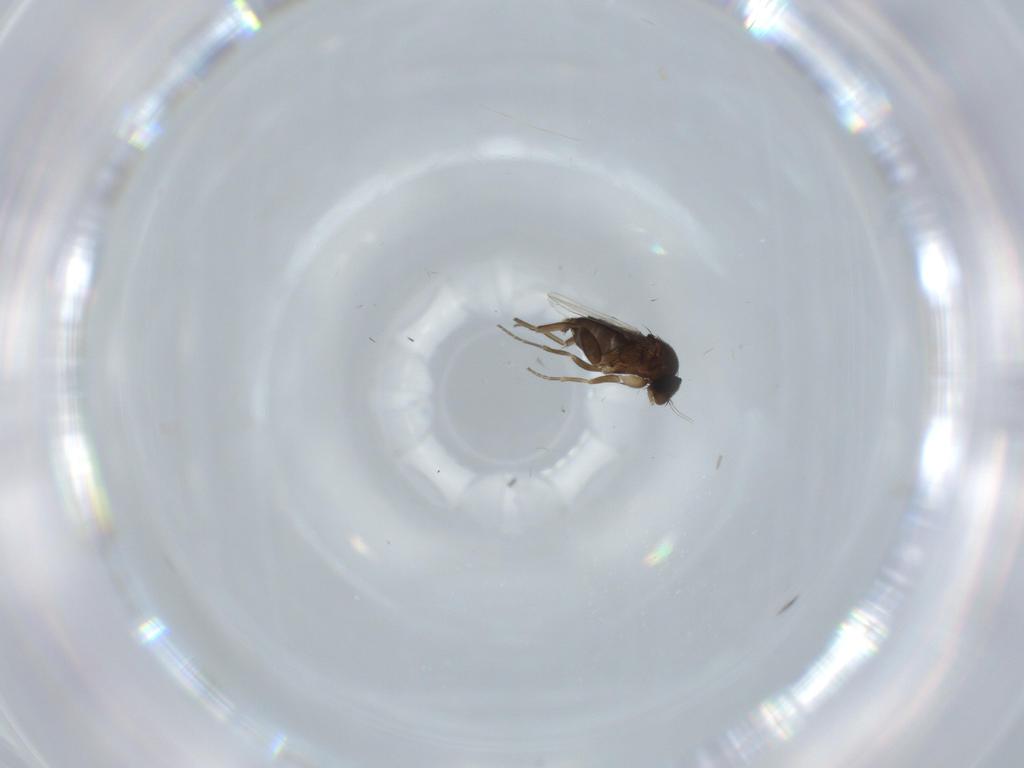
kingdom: Animalia
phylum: Arthropoda
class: Insecta
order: Diptera
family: Phoridae
